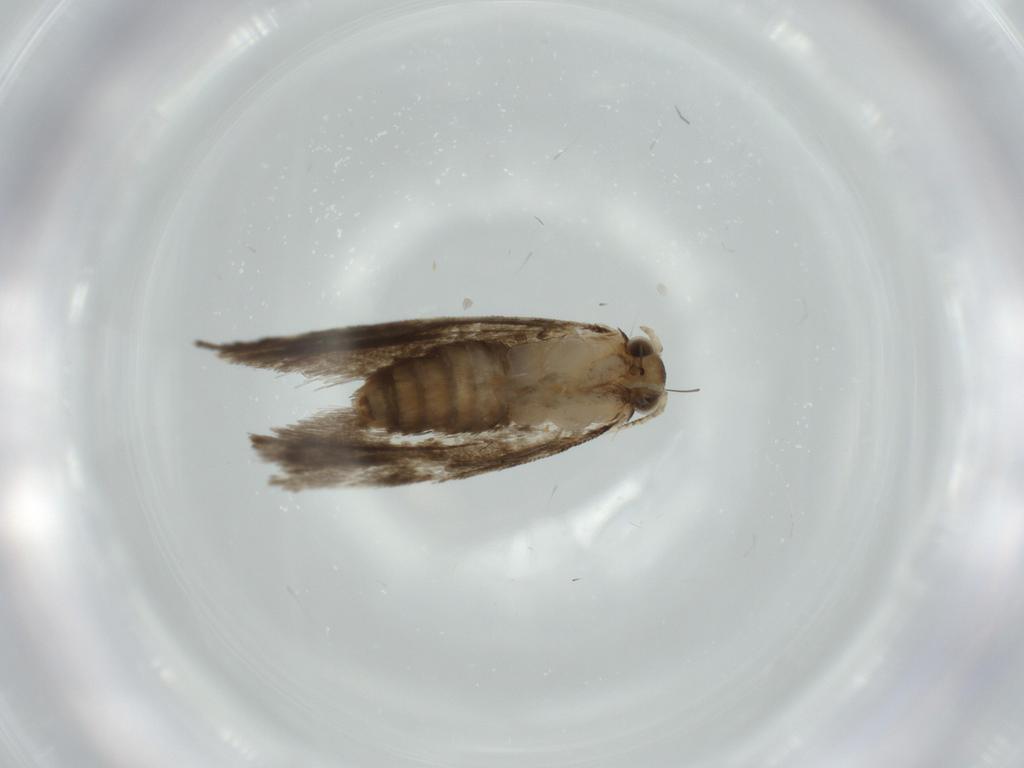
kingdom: Animalia
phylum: Arthropoda
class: Insecta
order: Lepidoptera
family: Tineidae
